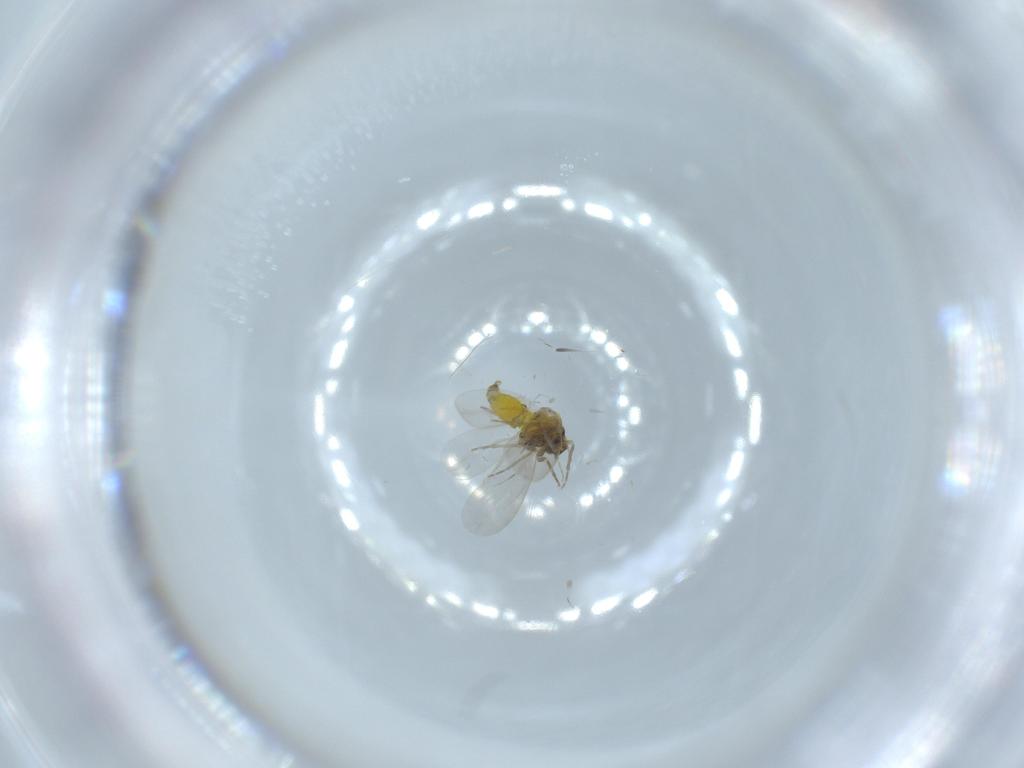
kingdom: Animalia
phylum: Arthropoda
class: Insecta
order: Hemiptera
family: Aleyrodidae
